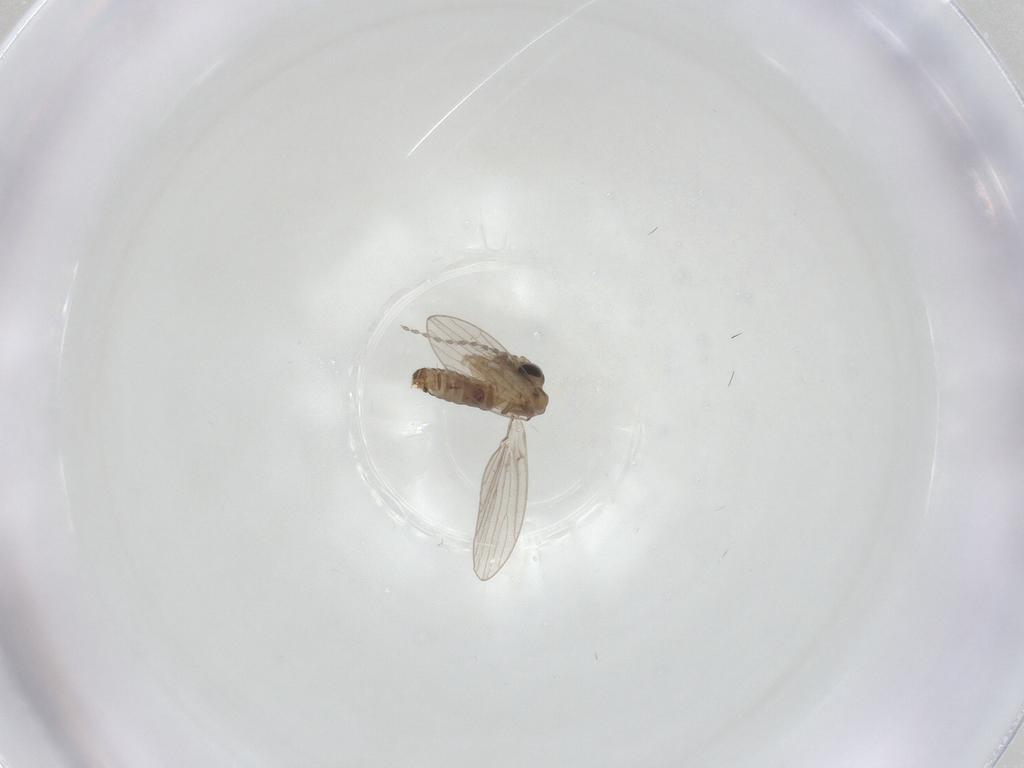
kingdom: Animalia
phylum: Arthropoda
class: Insecta
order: Diptera
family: Psychodidae
